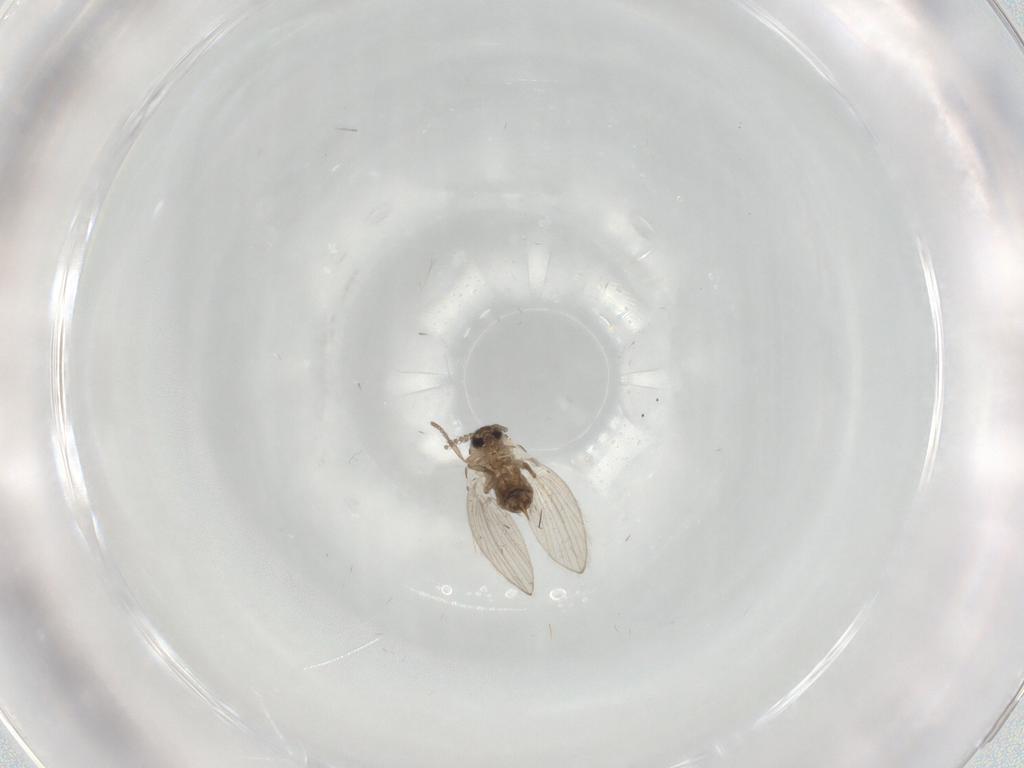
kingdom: Animalia
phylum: Arthropoda
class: Insecta
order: Diptera
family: Psychodidae
